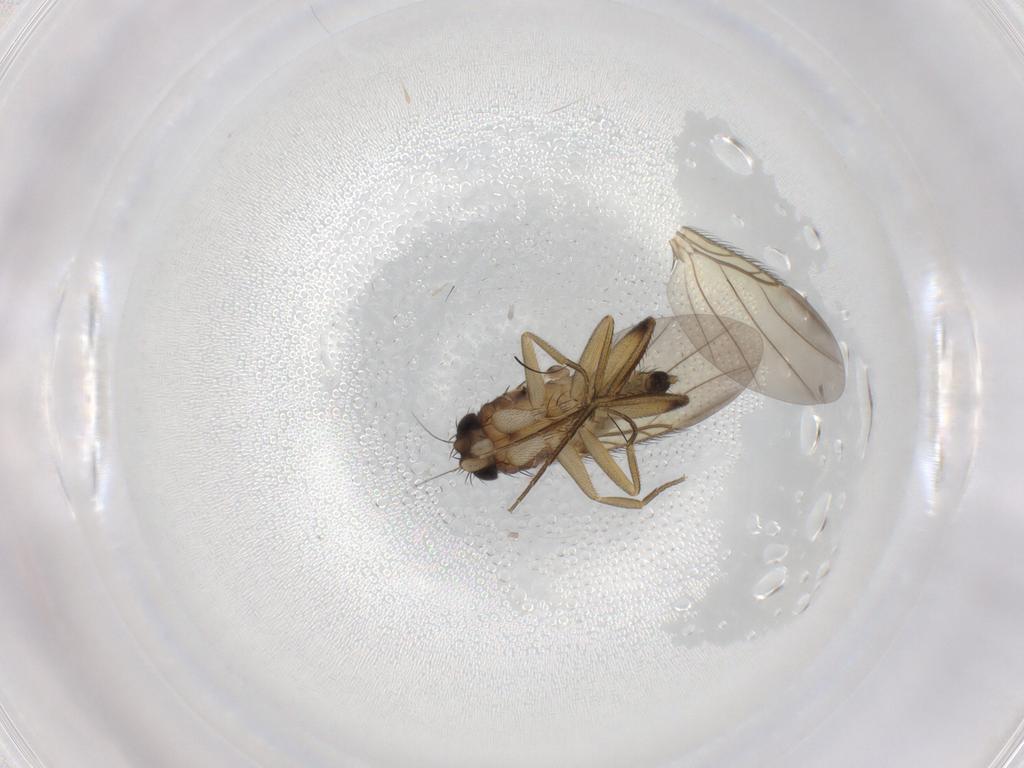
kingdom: Animalia
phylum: Arthropoda
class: Insecta
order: Diptera
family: Phoridae
